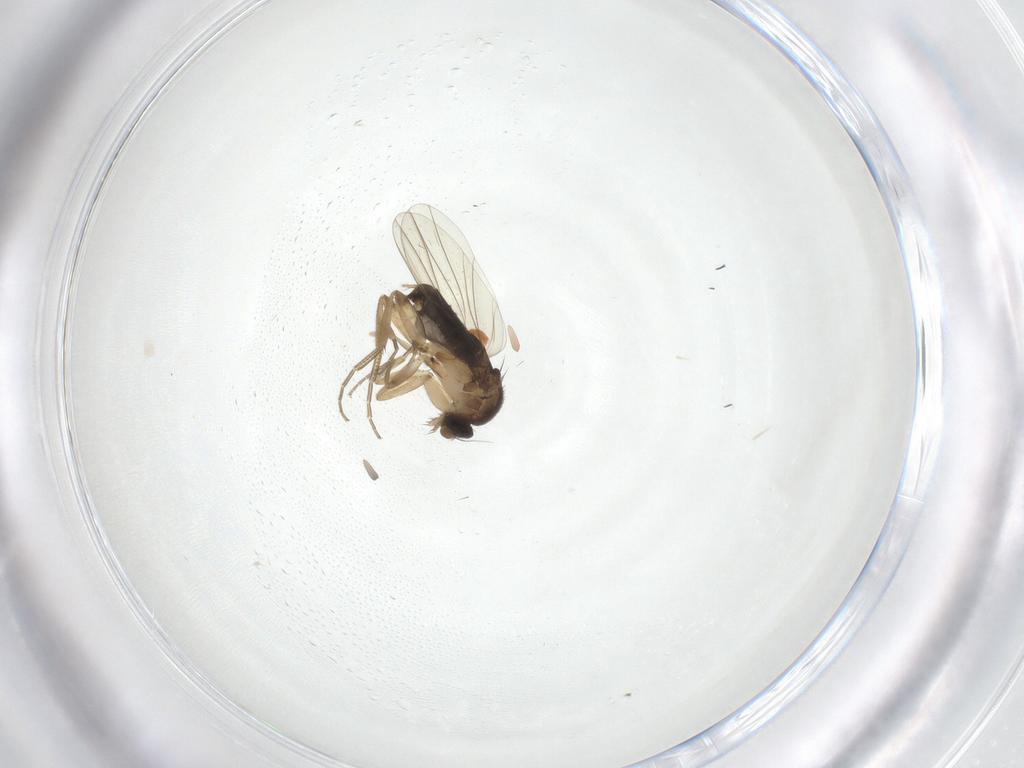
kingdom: Animalia
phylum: Arthropoda
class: Insecta
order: Diptera
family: Phoridae
